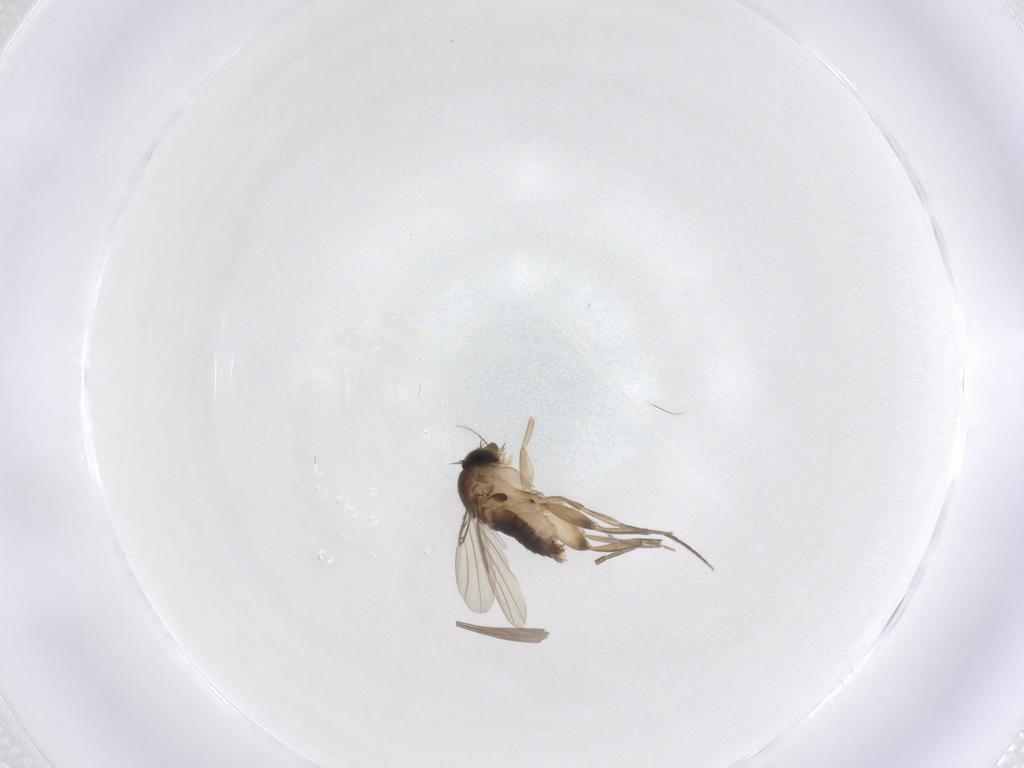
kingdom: Animalia
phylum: Arthropoda
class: Insecta
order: Diptera
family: Phoridae
